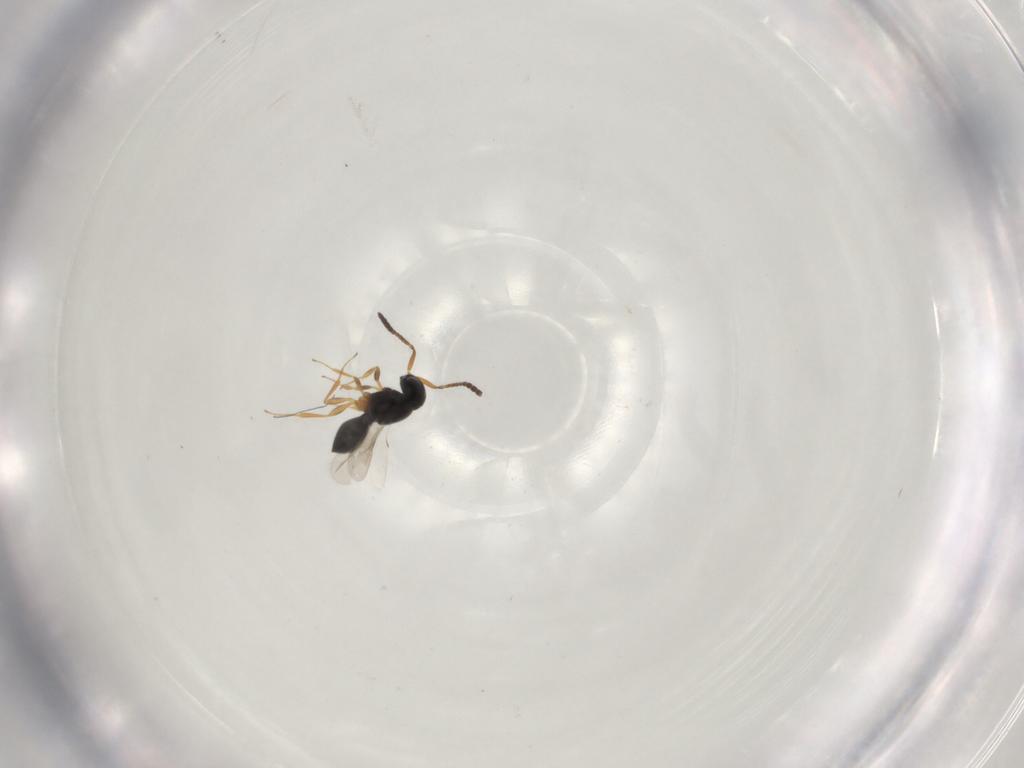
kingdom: Animalia
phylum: Arthropoda
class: Insecta
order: Hymenoptera
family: Scelionidae
